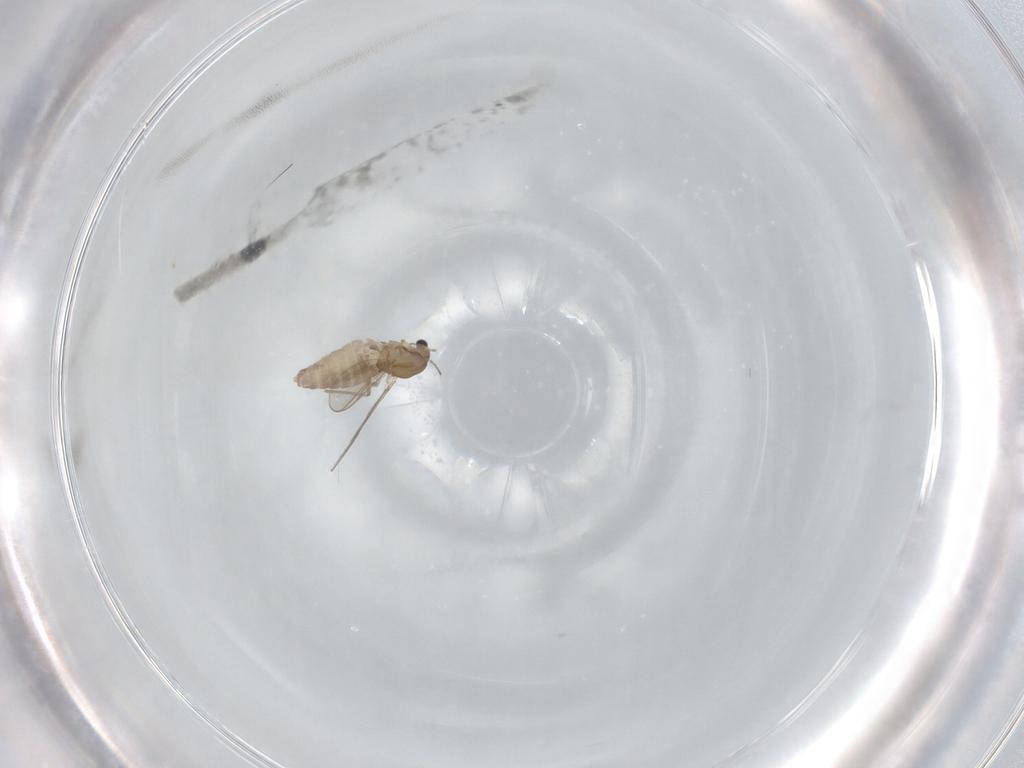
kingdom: Animalia
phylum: Arthropoda
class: Insecta
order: Diptera
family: Chironomidae
